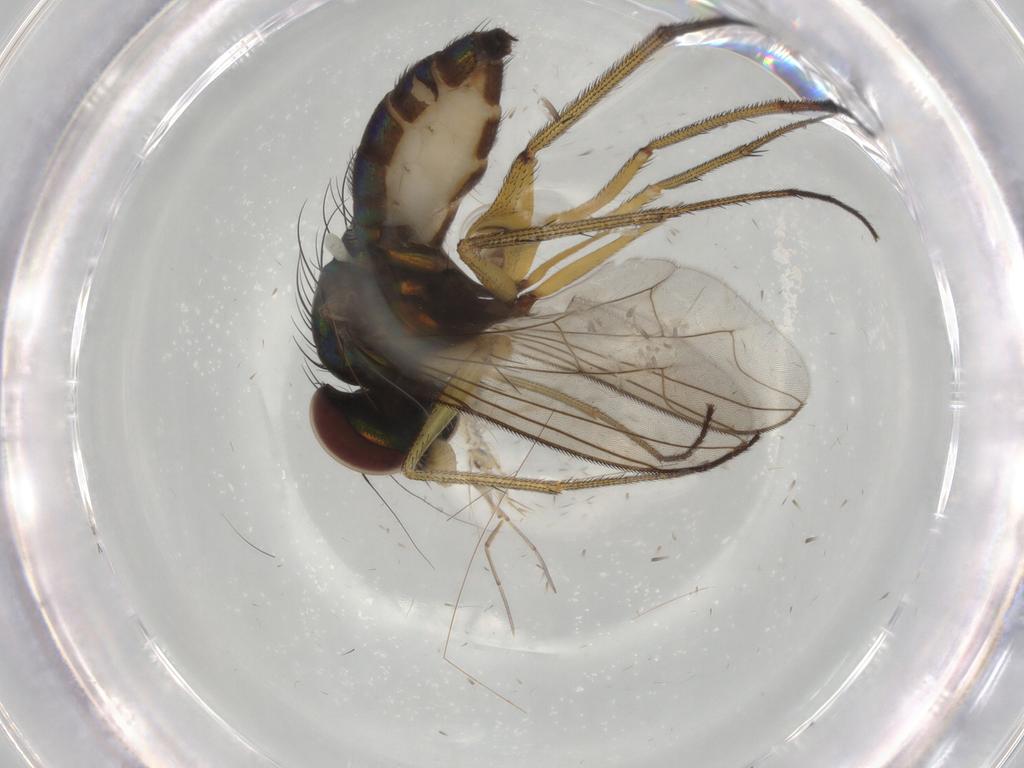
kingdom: Animalia
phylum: Arthropoda
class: Insecta
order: Diptera
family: Dolichopodidae
